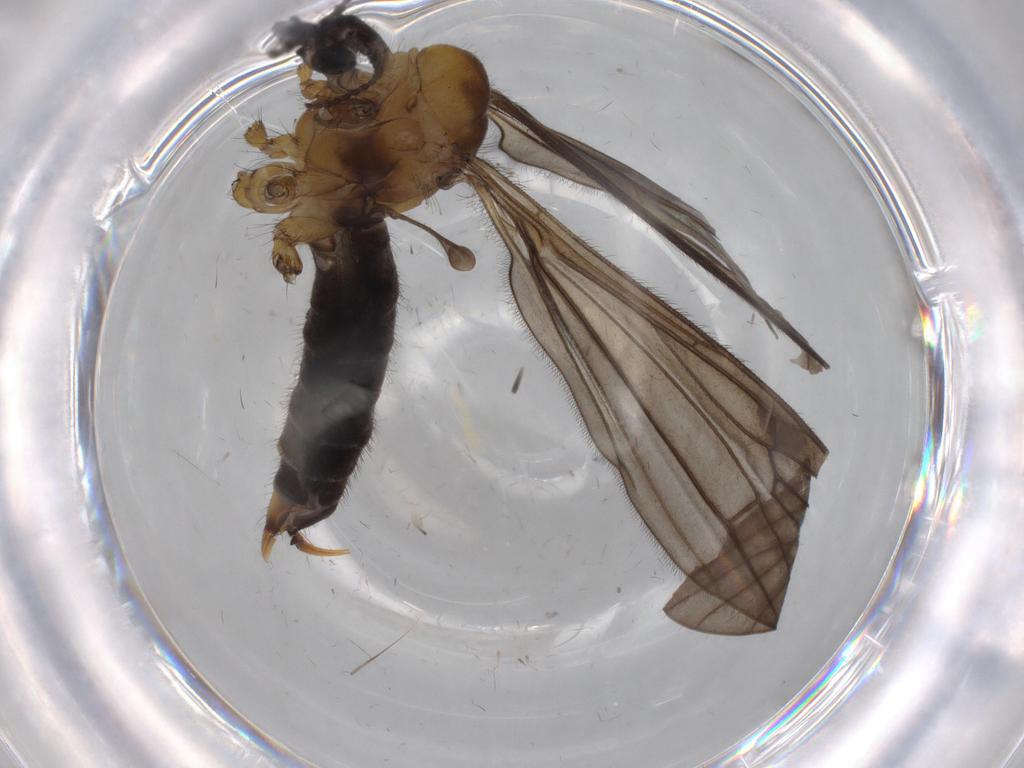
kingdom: Animalia
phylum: Arthropoda
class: Insecta
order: Diptera
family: Limoniidae
